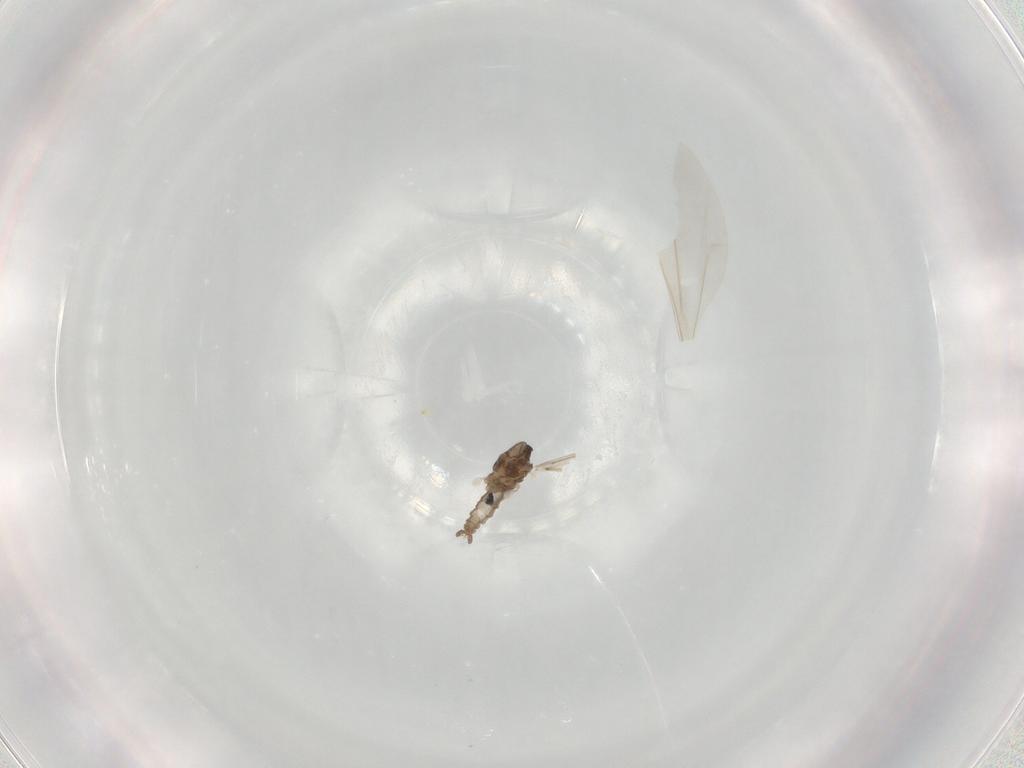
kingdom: Animalia
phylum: Arthropoda
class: Insecta
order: Diptera
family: Cecidomyiidae
